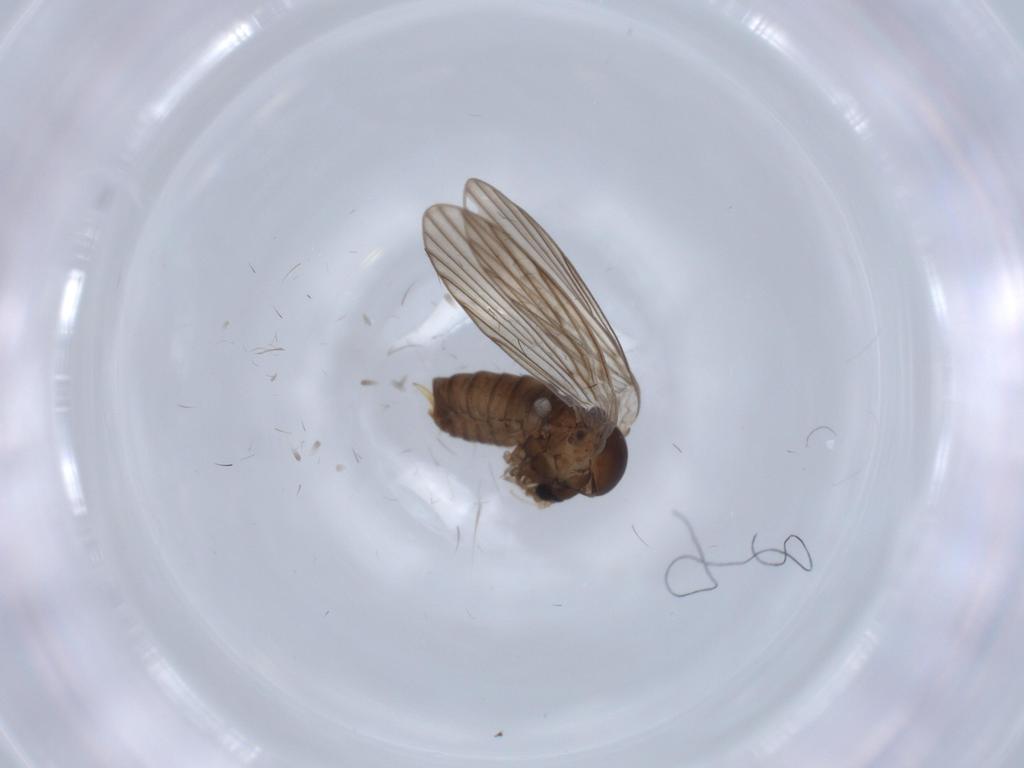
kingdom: Animalia
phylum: Arthropoda
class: Insecta
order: Diptera
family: Psychodidae
